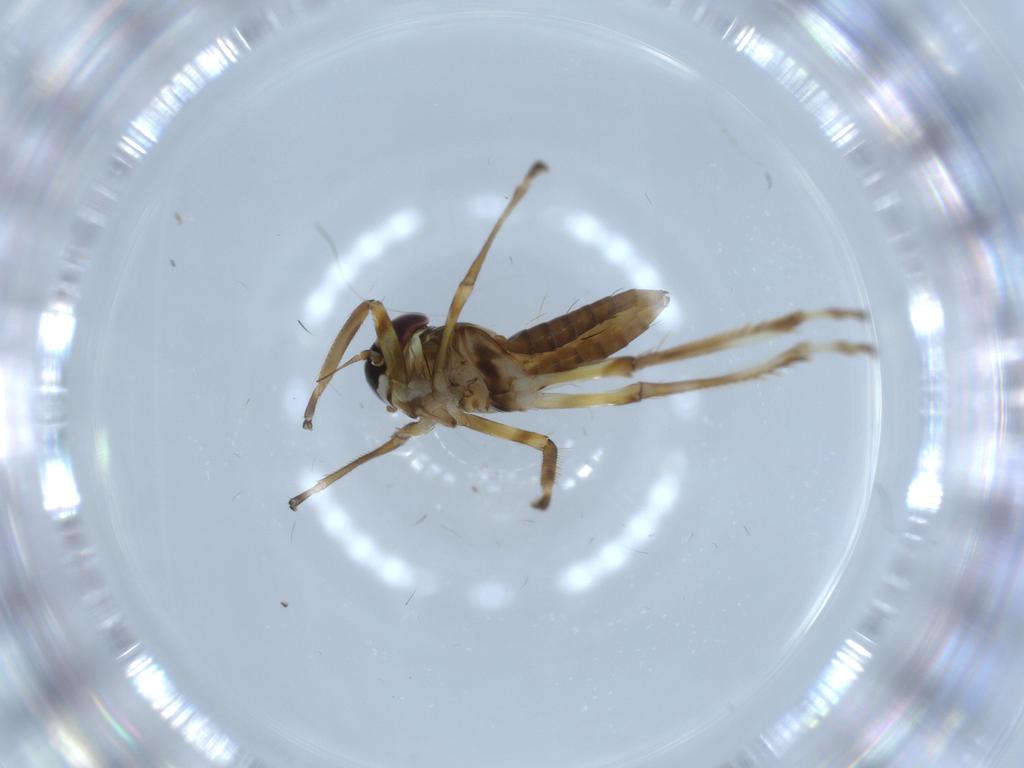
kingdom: Animalia
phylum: Arthropoda
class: Insecta
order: Hemiptera
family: Cicadellidae
